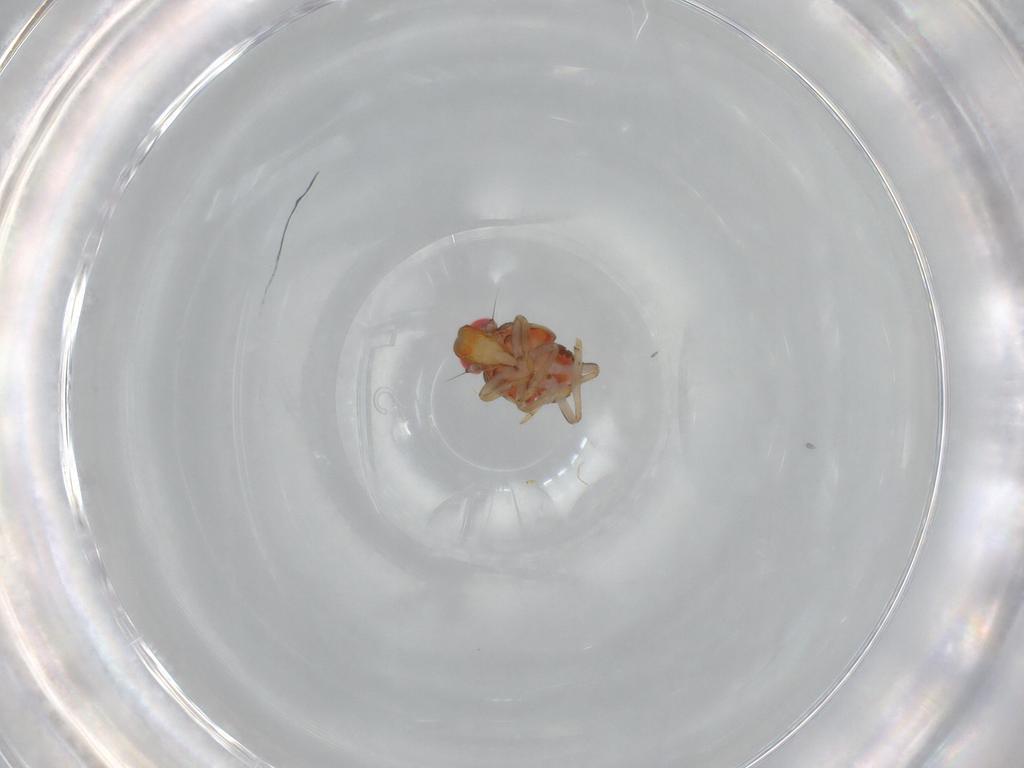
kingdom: Animalia
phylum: Arthropoda
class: Insecta
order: Hemiptera
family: Issidae
